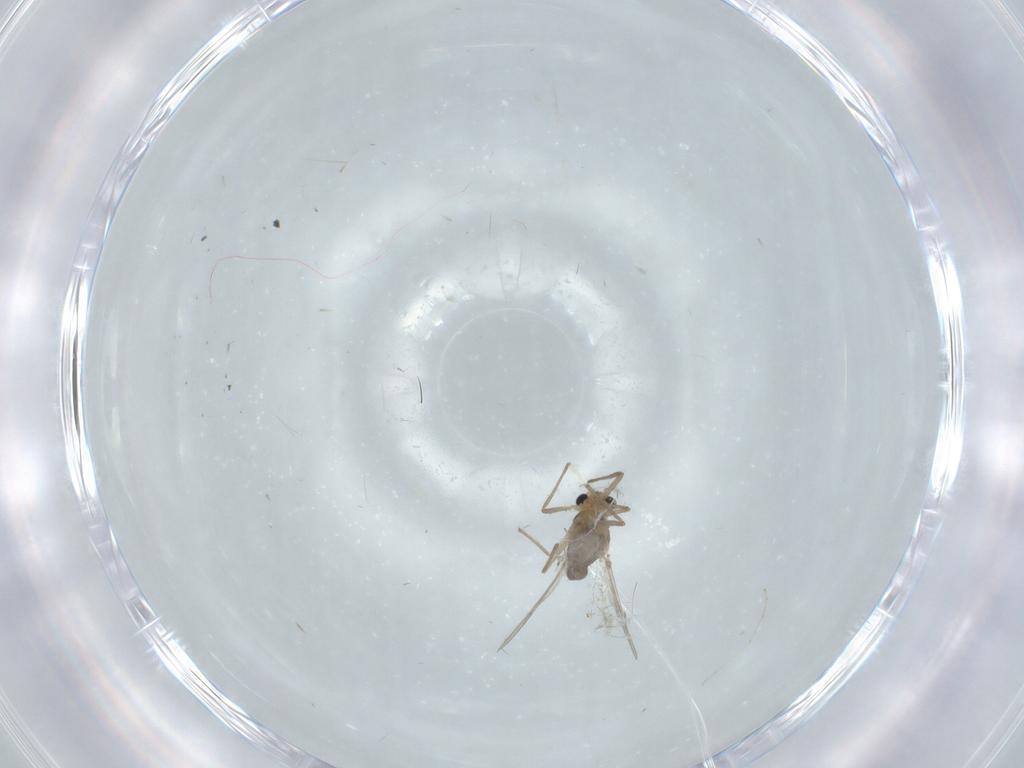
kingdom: Animalia
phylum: Arthropoda
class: Insecta
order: Diptera
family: Chironomidae
